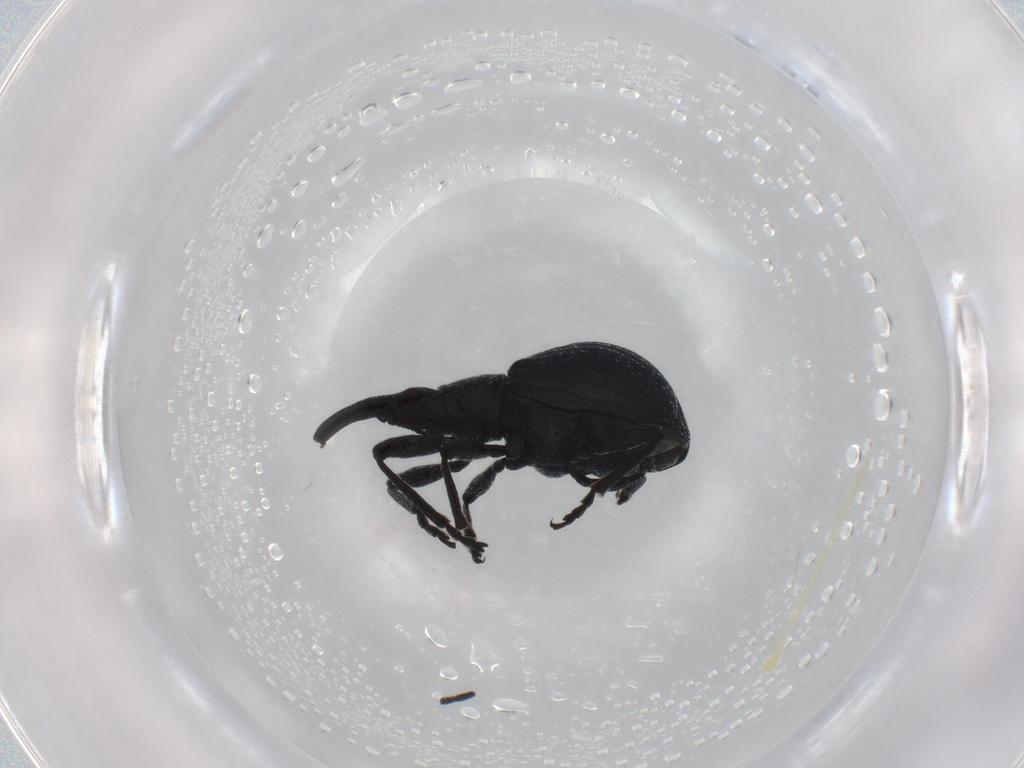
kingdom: Animalia
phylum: Arthropoda
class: Insecta
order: Coleoptera
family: Brentidae
